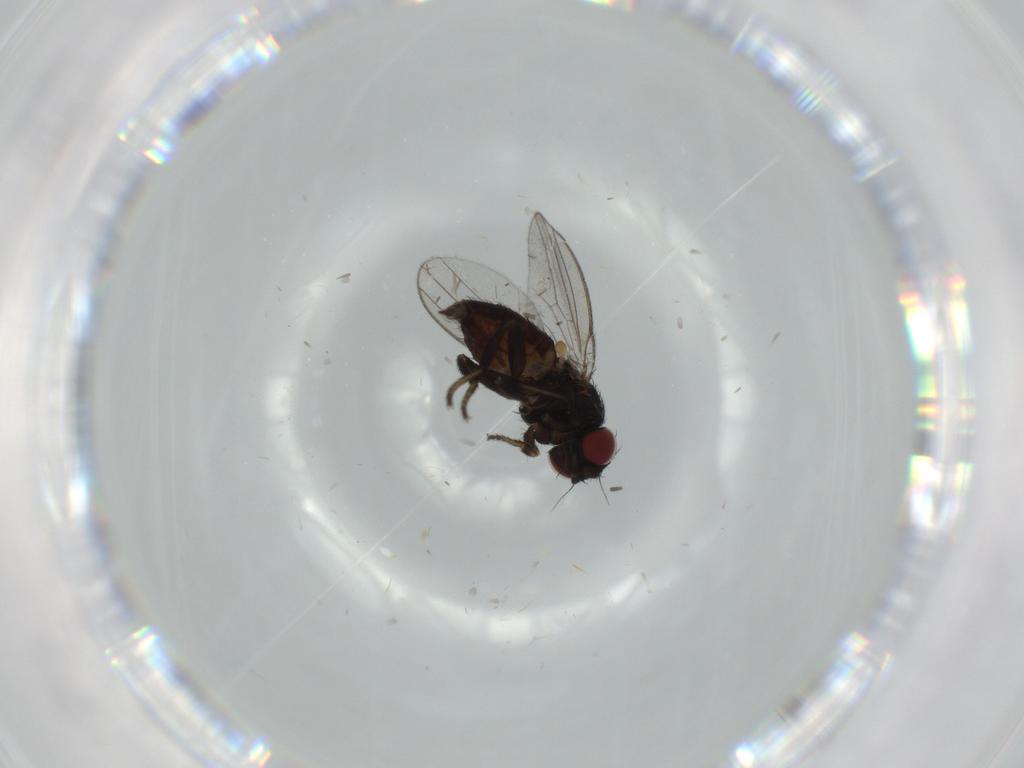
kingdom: Animalia
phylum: Arthropoda
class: Insecta
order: Diptera
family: Milichiidae
